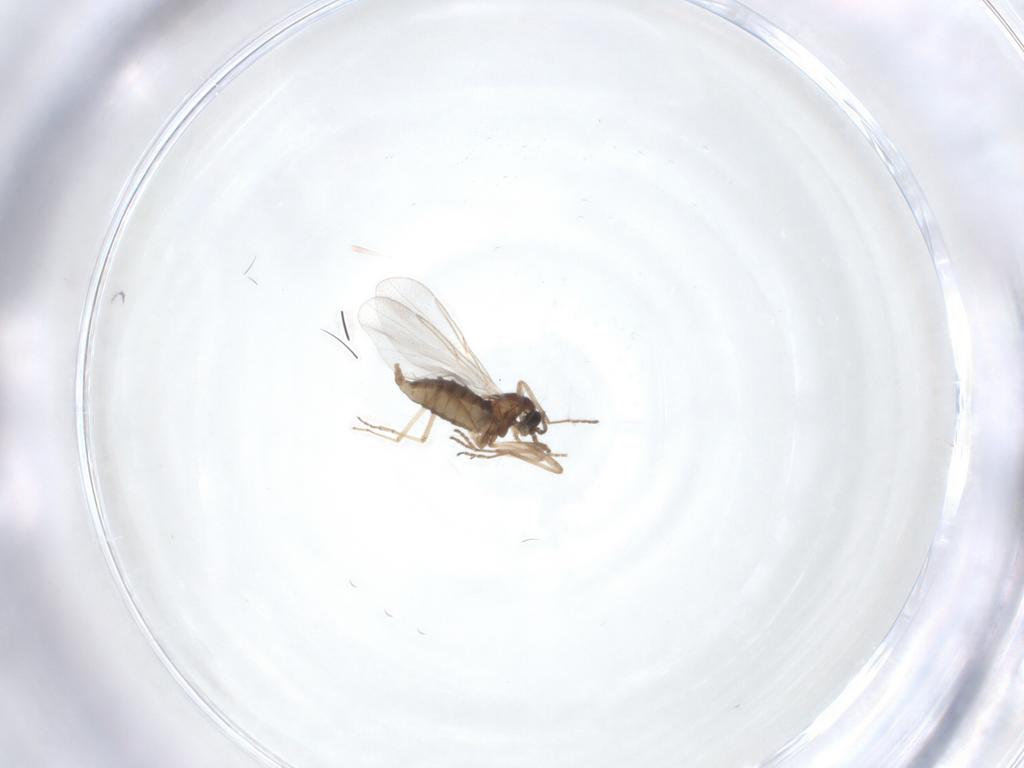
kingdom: Animalia
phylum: Arthropoda
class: Insecta
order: Diptera
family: Cecidomyiidae
